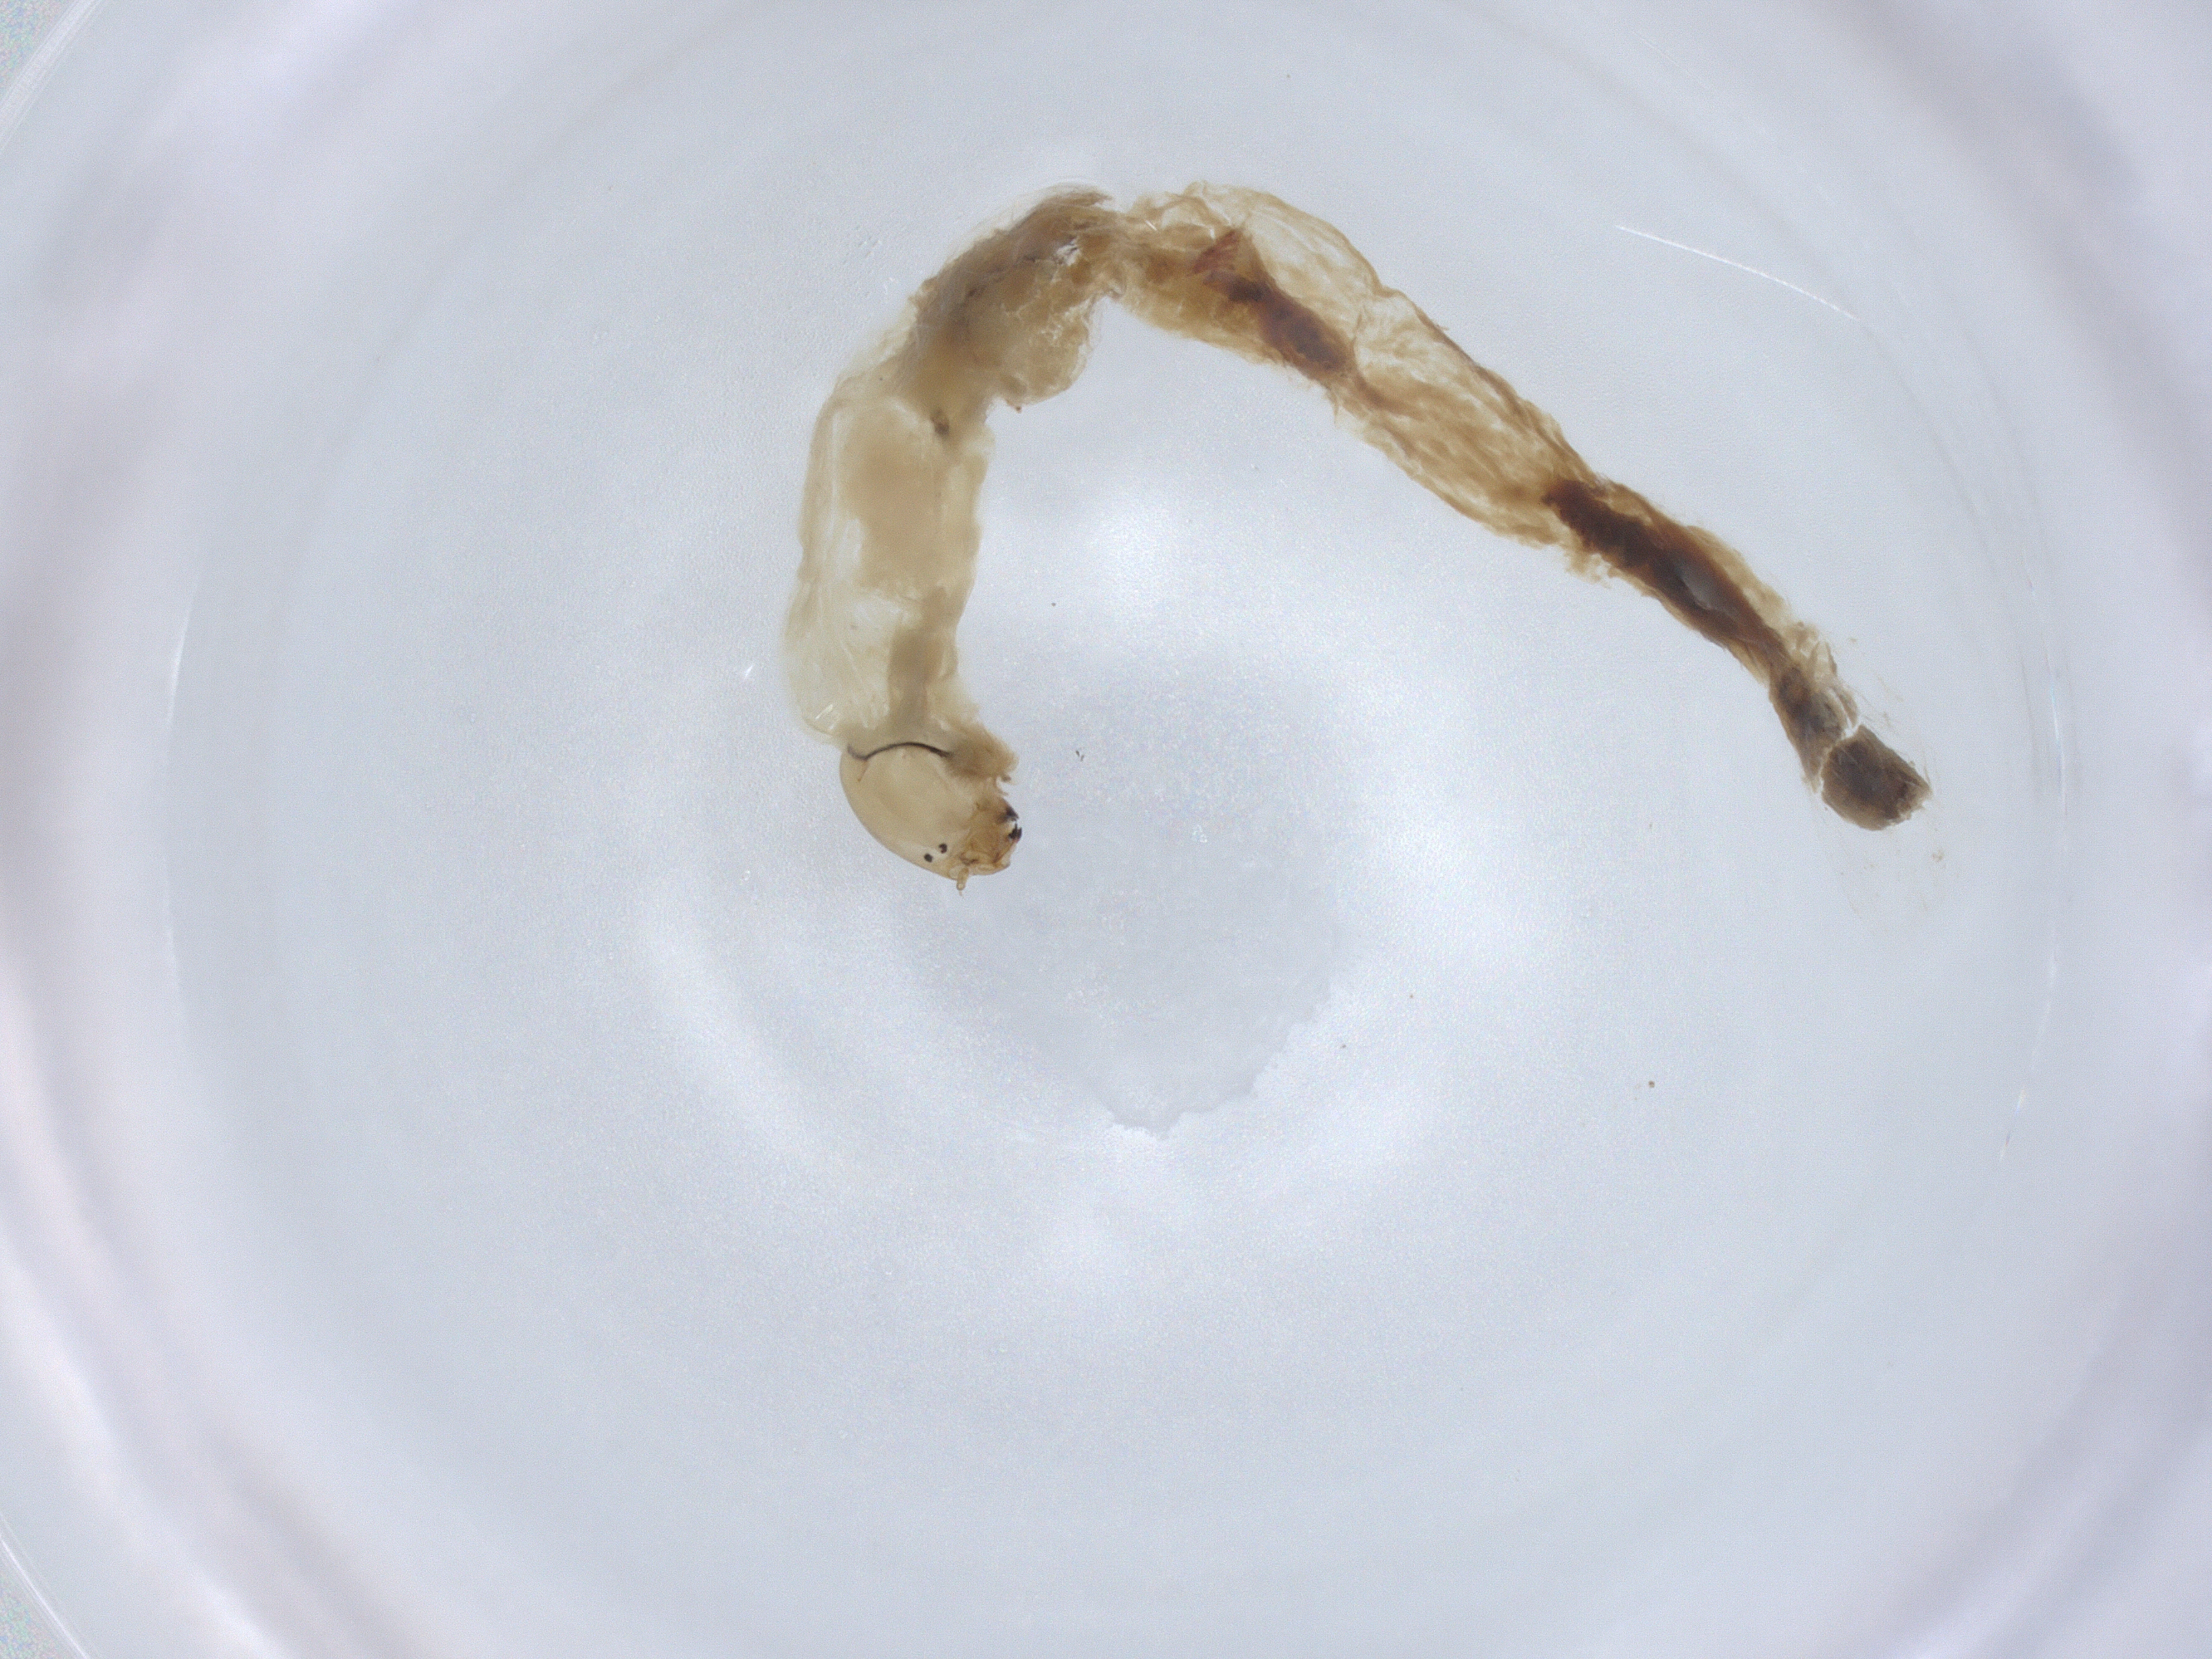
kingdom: Animalia
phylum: Arthropoda
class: Insecta
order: Diptera
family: Chironomidae
